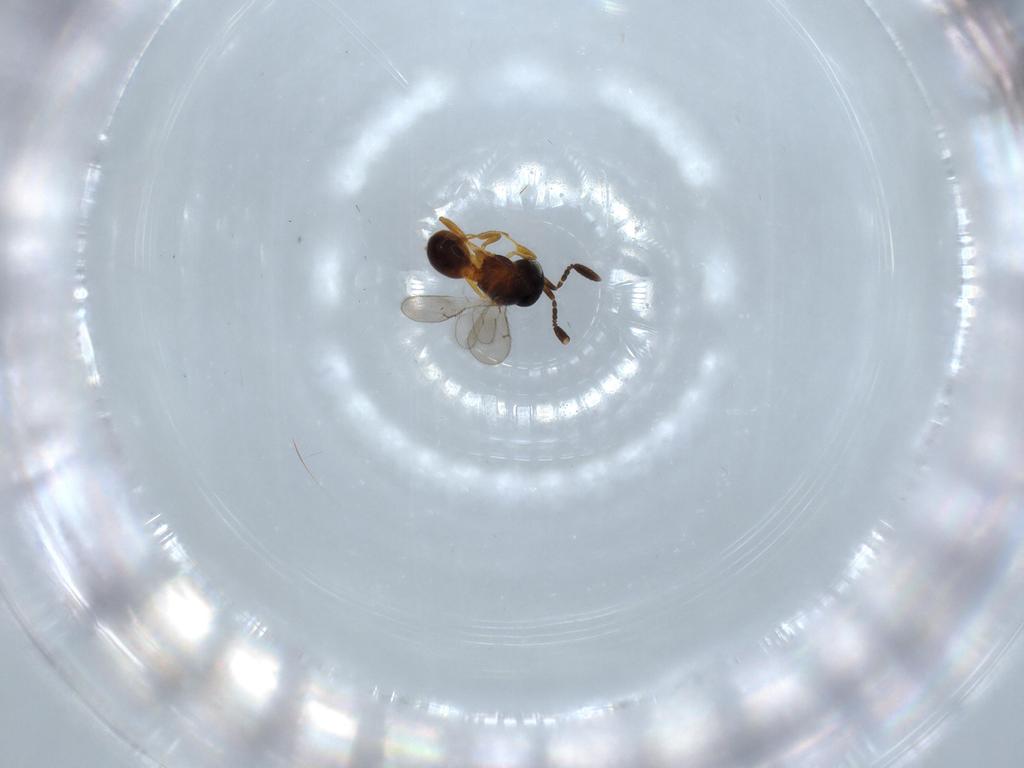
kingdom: Animalia
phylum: Arthropoda
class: Insecta
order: Hymenoptera
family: Scelionidae
